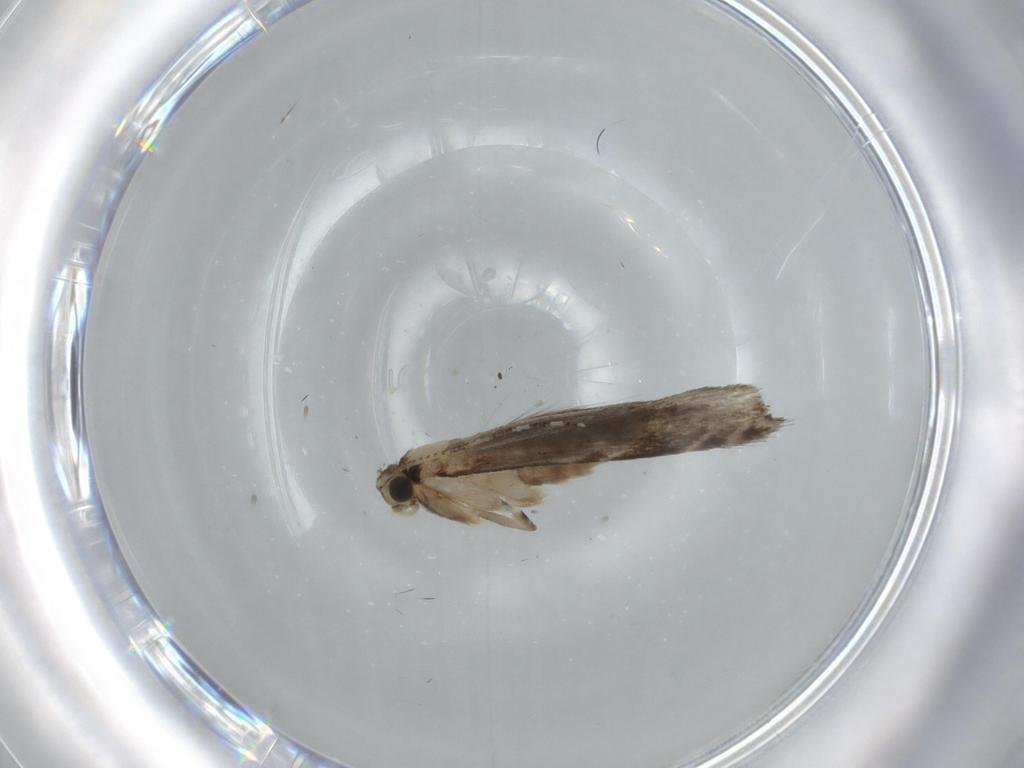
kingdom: Animalia
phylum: Arthropoda
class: Insecta
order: Lepidoptera
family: Tineidae
